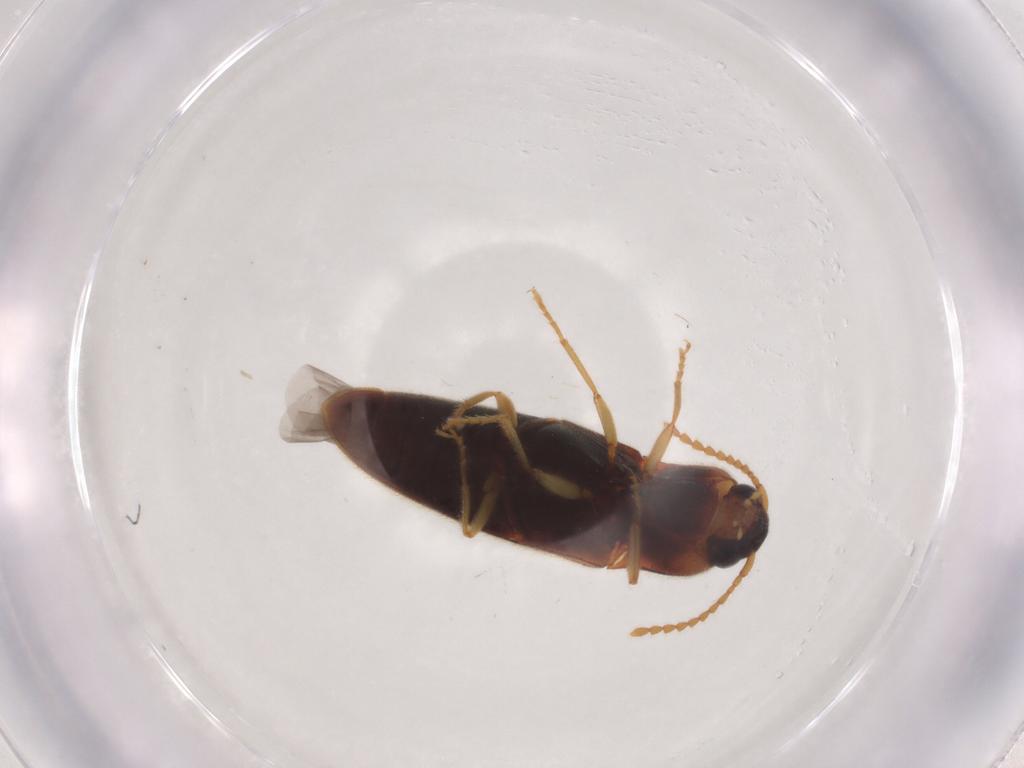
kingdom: Animalia
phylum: Arthropoda
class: Insecta
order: Coleoptera
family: Elateridae
